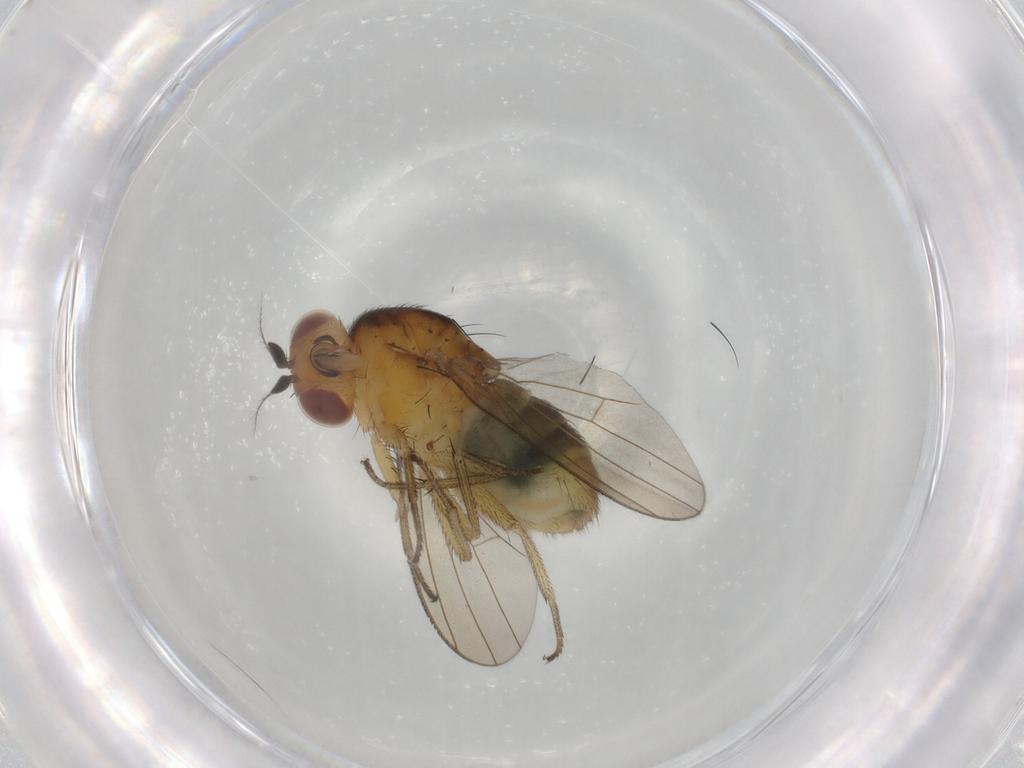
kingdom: Animalia
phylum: Arthropoda
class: Insecta
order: Diptera
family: Lauxaniidae
